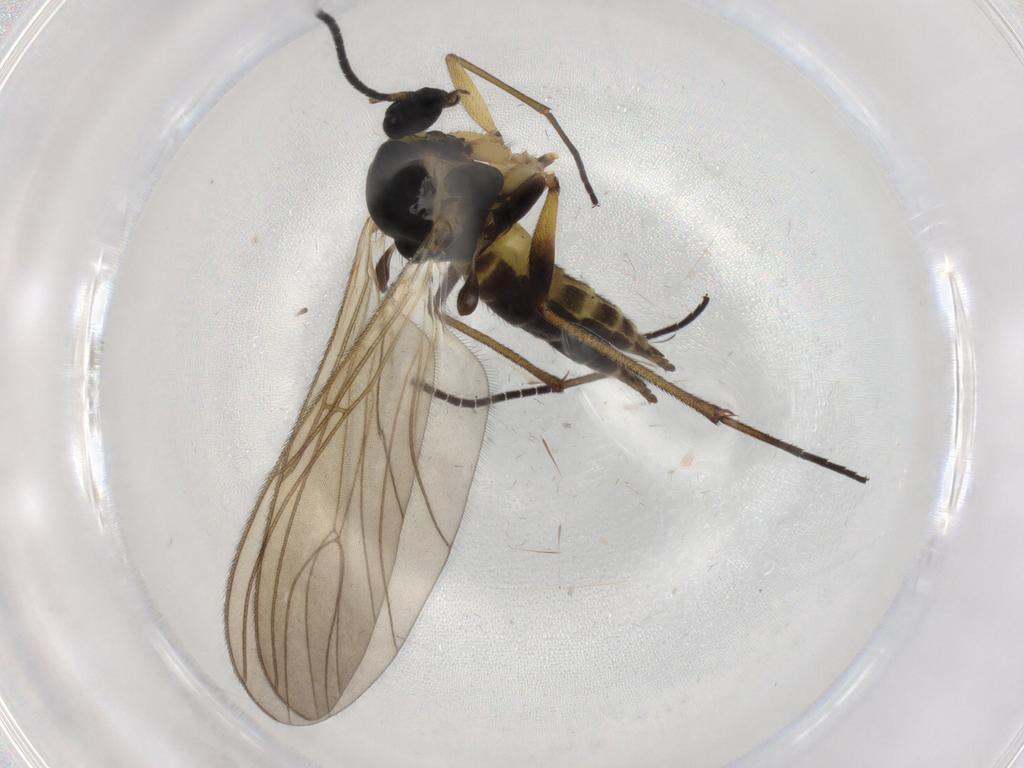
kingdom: Animalia
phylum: Arthropoda
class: Insecta
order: Diptera
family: Sciaridae
